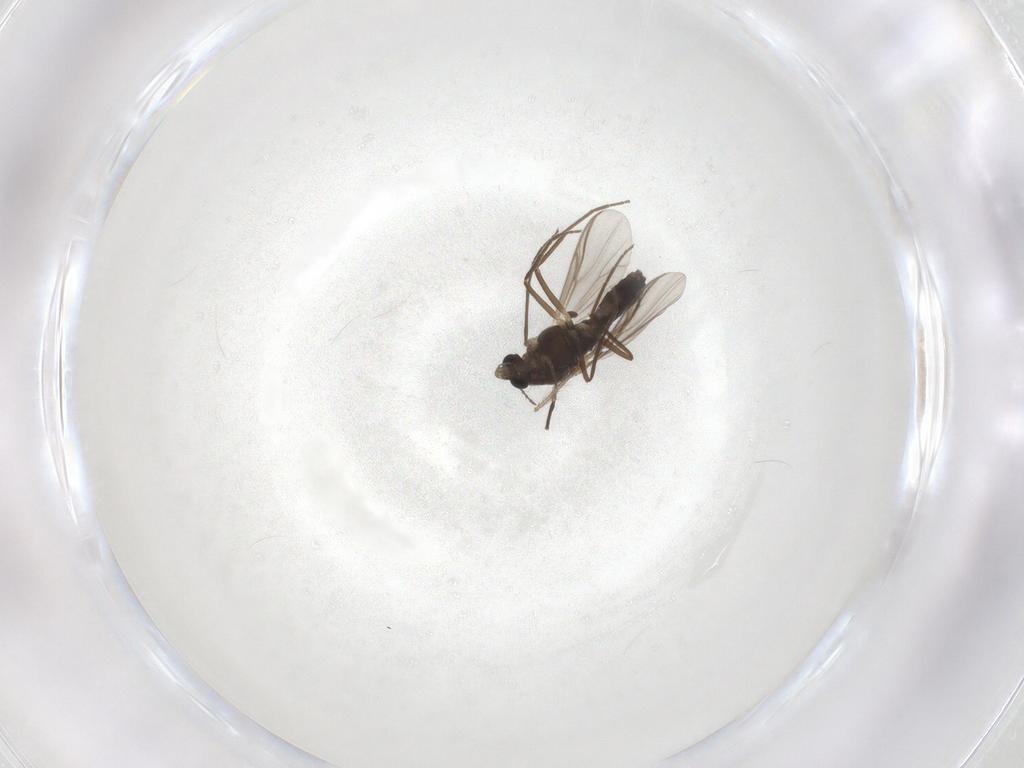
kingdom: Animalia
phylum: Arthropoda
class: Insecta
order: Diptera
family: Chironomidae
